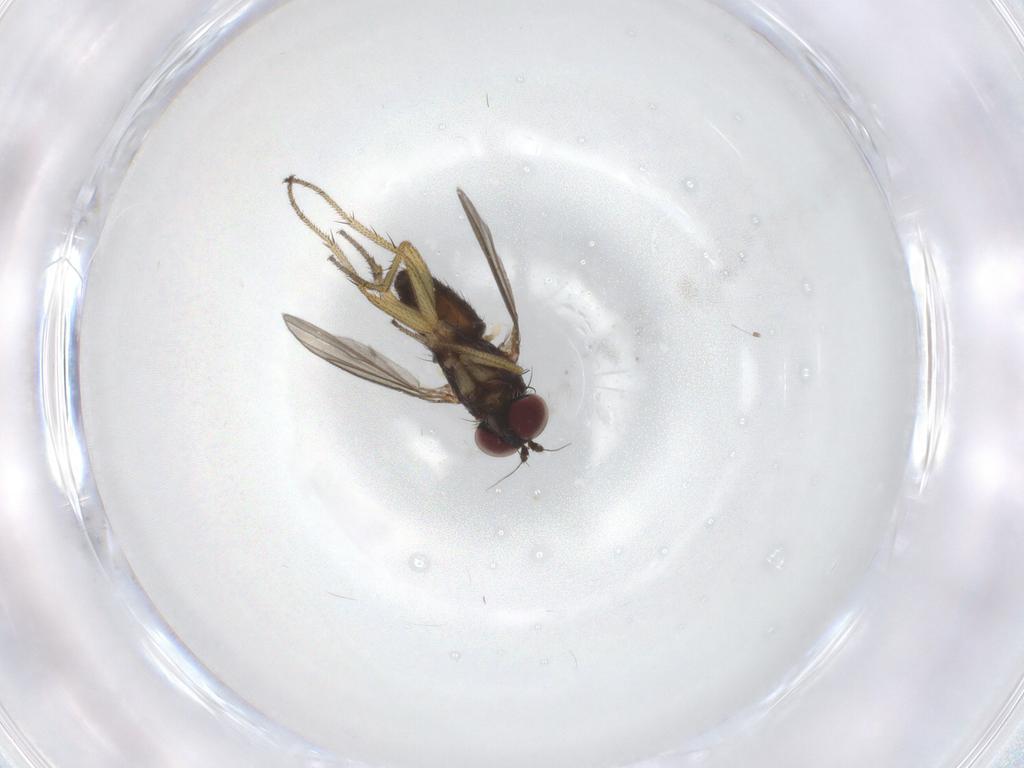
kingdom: Animalia
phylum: Arthropoda
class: Insecta
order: Diptera
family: Dolichopodidae
